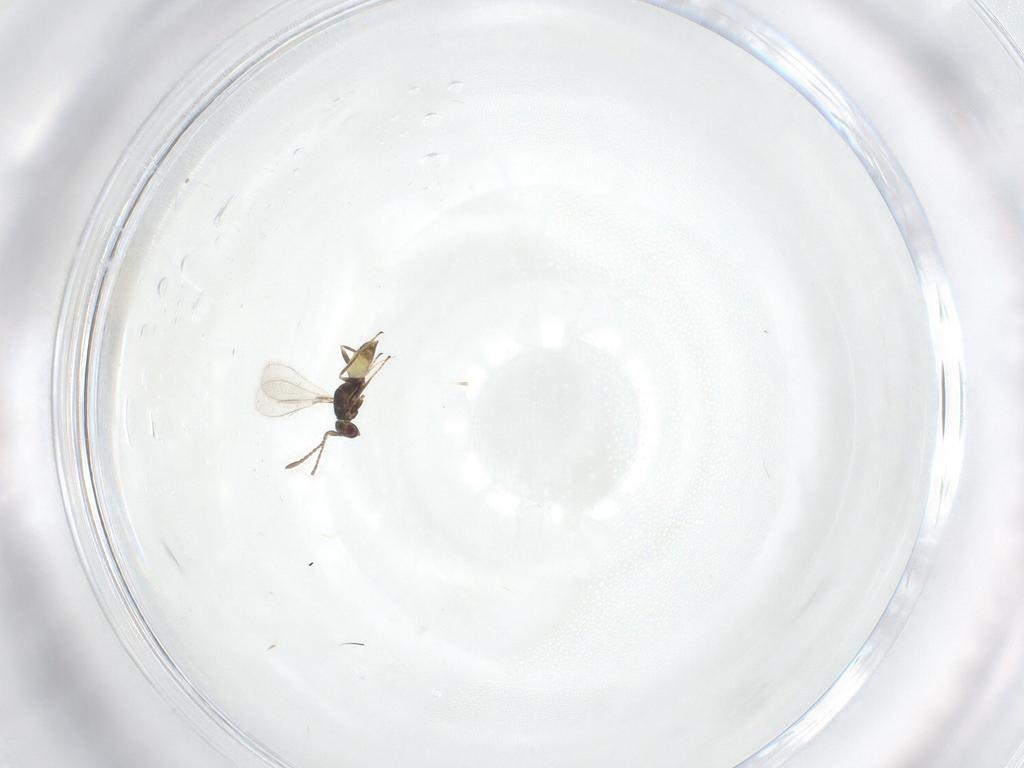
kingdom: Animalia
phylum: Arthropoda
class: Insecta
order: Hymenoptera
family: Mymaridae
